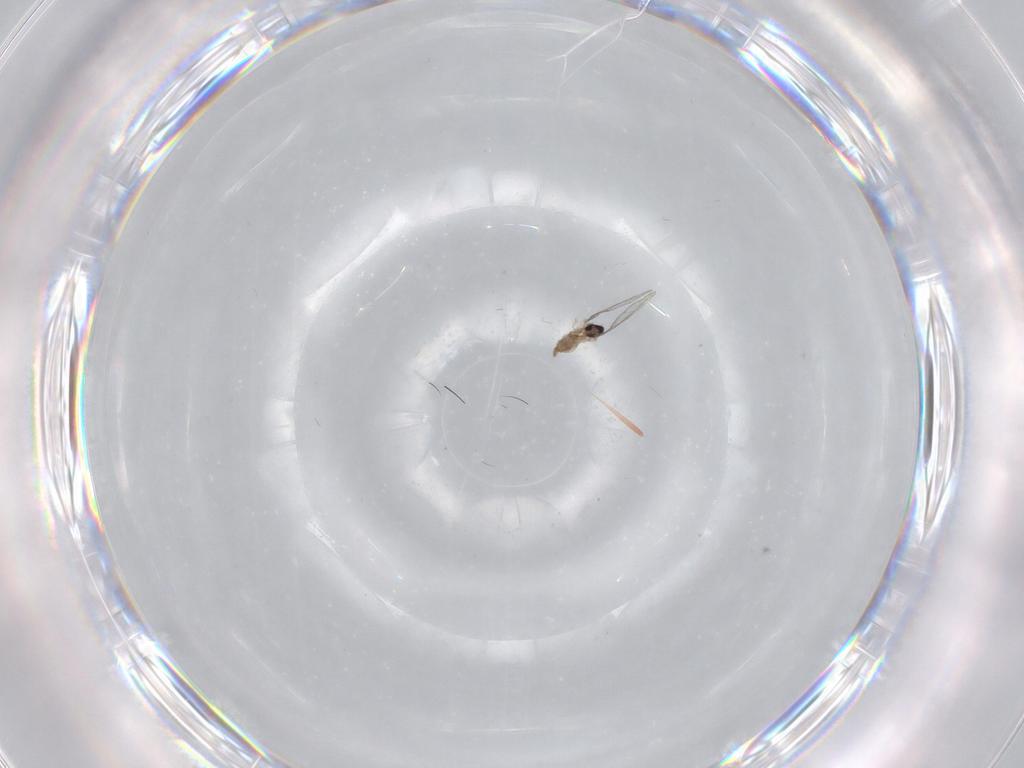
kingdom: Animalia
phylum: Arthropoda
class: Insecta
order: Diptera
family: Cecidomyiidae
